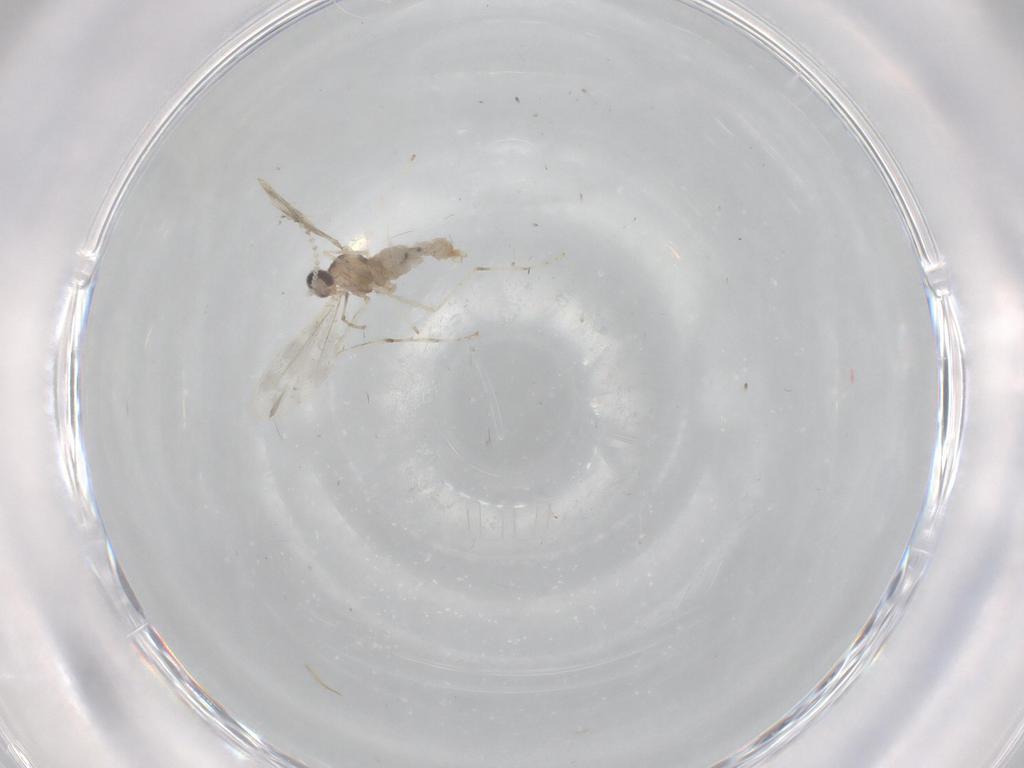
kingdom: Animalia
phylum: Arthropoda
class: Insecta
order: Diptera
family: Cecidomyiidae
